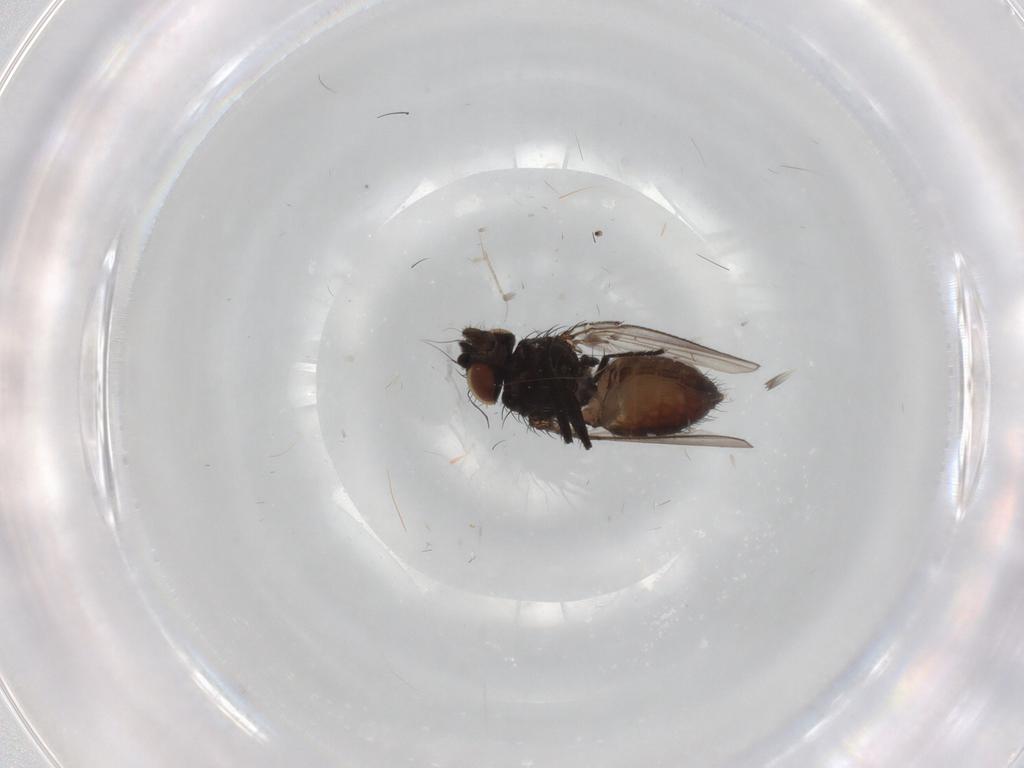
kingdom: Animalia
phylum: Arthropoda
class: Insecta
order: Diptera
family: Milichiidae
